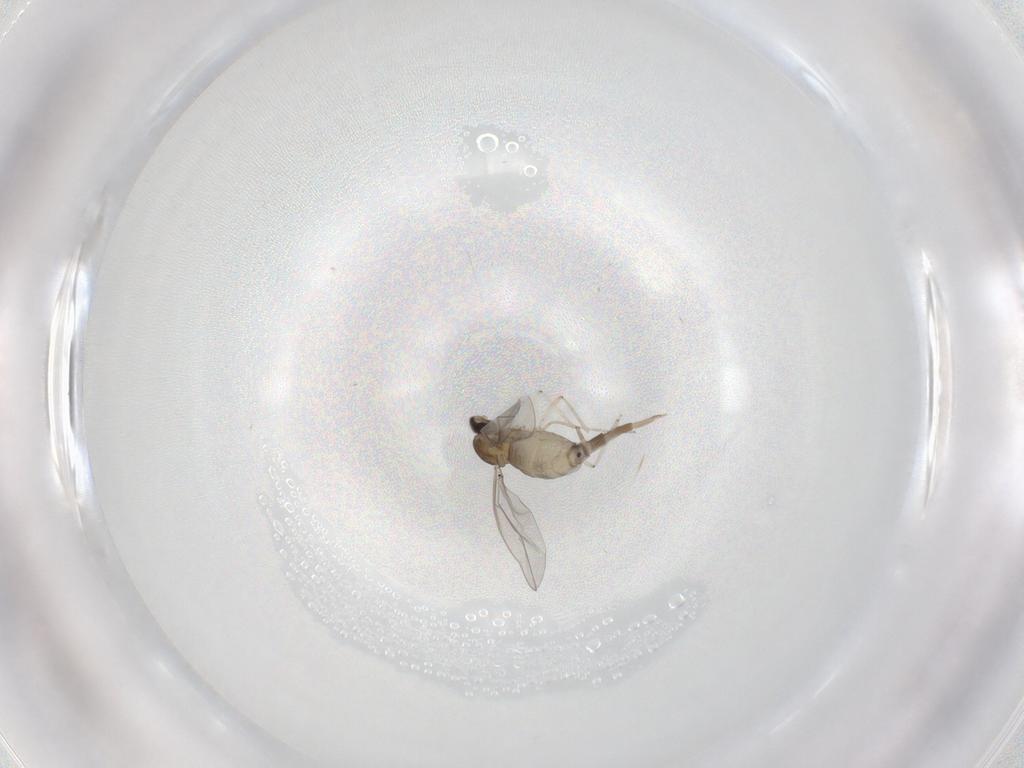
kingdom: Animalia
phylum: Arthropoda
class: Insecta
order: Diptera
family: Cecidomyiidae
